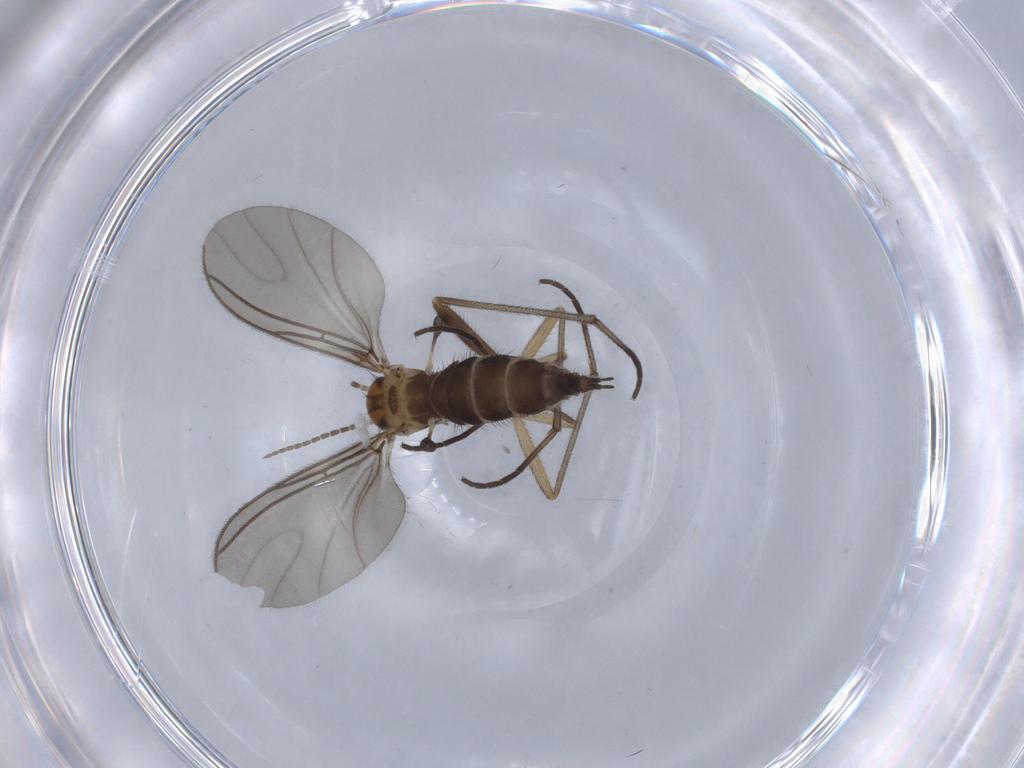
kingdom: Animalia
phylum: Arthropoda
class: Insecta
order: Diptera
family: Sciaridae
